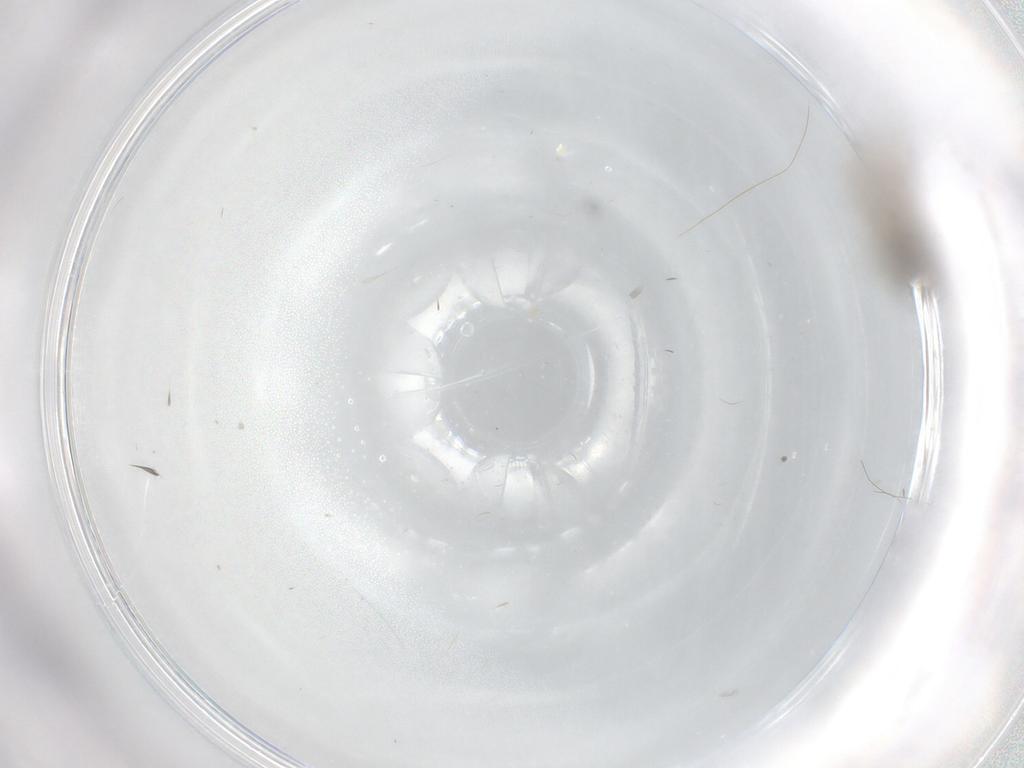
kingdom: Animalia
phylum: Arthropoda
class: Insecta
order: Diptera
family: Cecidomyiidae
